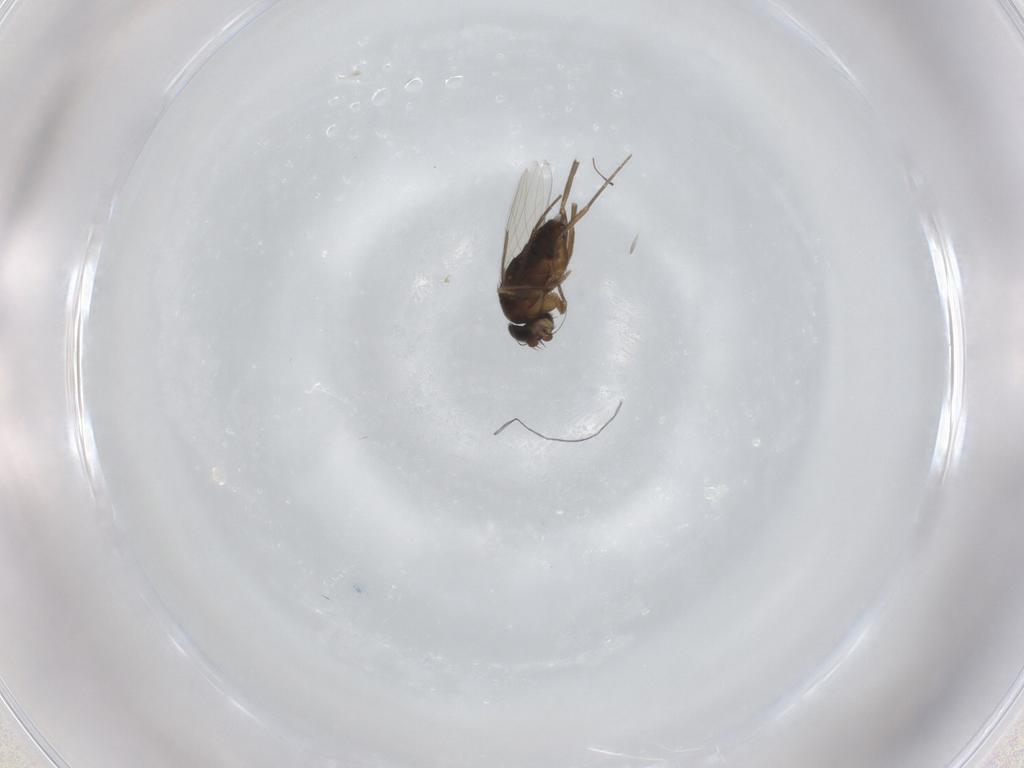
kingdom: Animalia
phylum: Arthropoda
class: Insecta
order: Diptera
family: Phoridae
